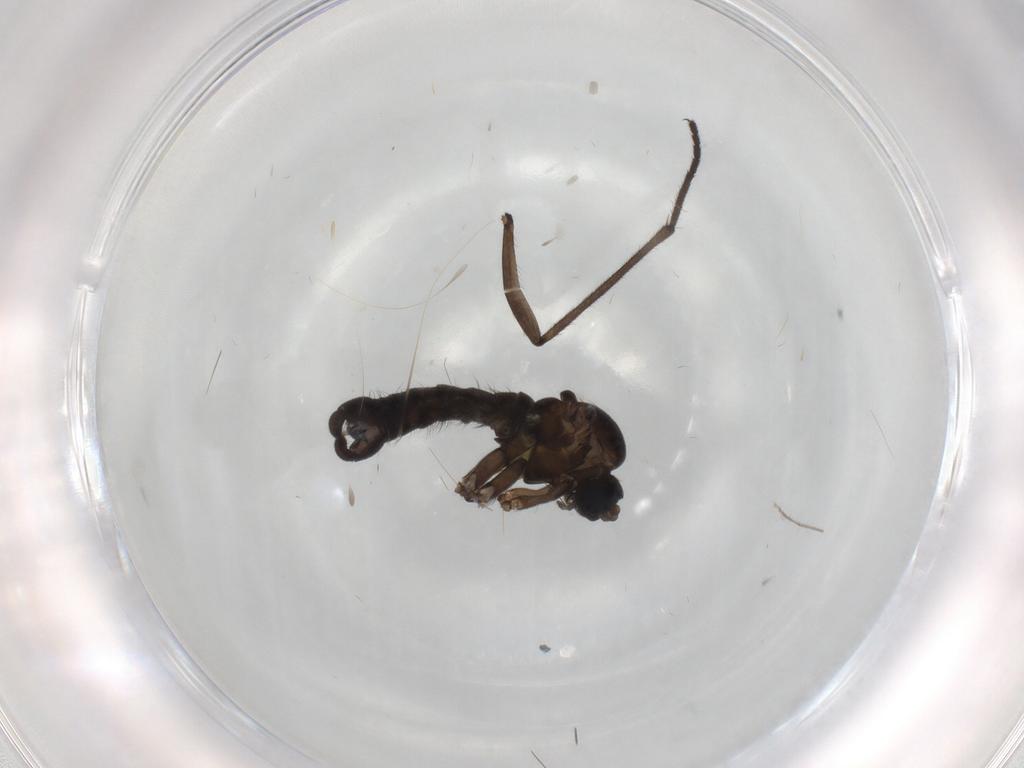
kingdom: Animalia
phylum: Arthropoda
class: Insecta
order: Diptera
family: Sciaridae
